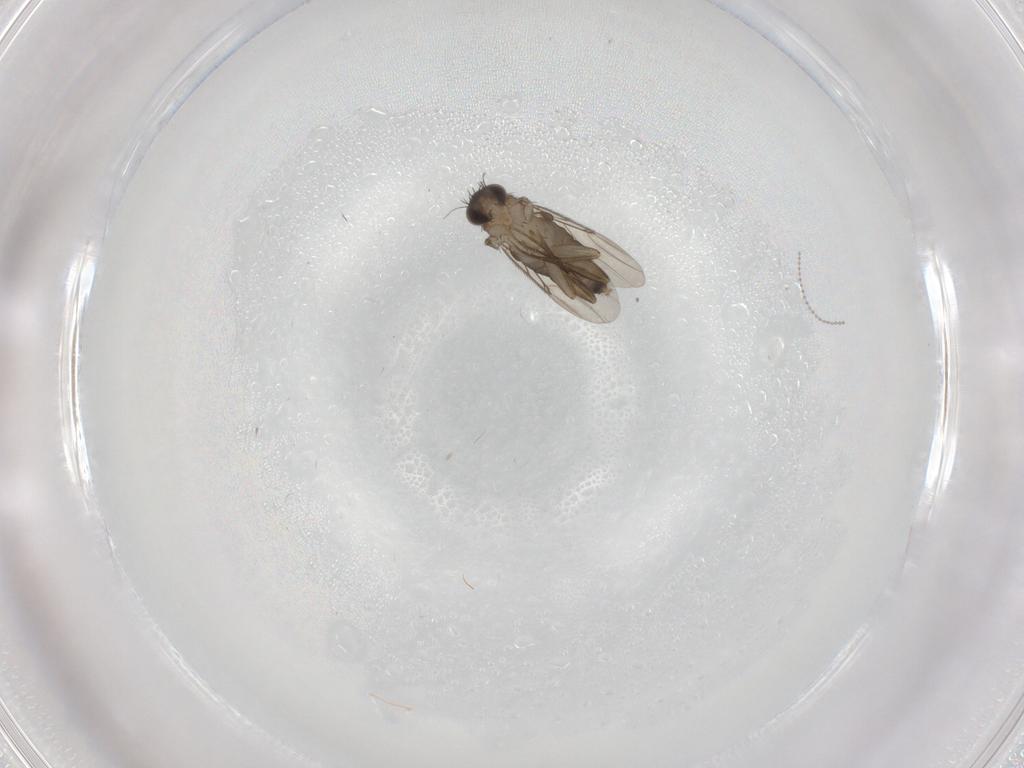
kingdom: Animalia
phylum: Arthropoda
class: Insecta
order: Diptera
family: Phoridae
